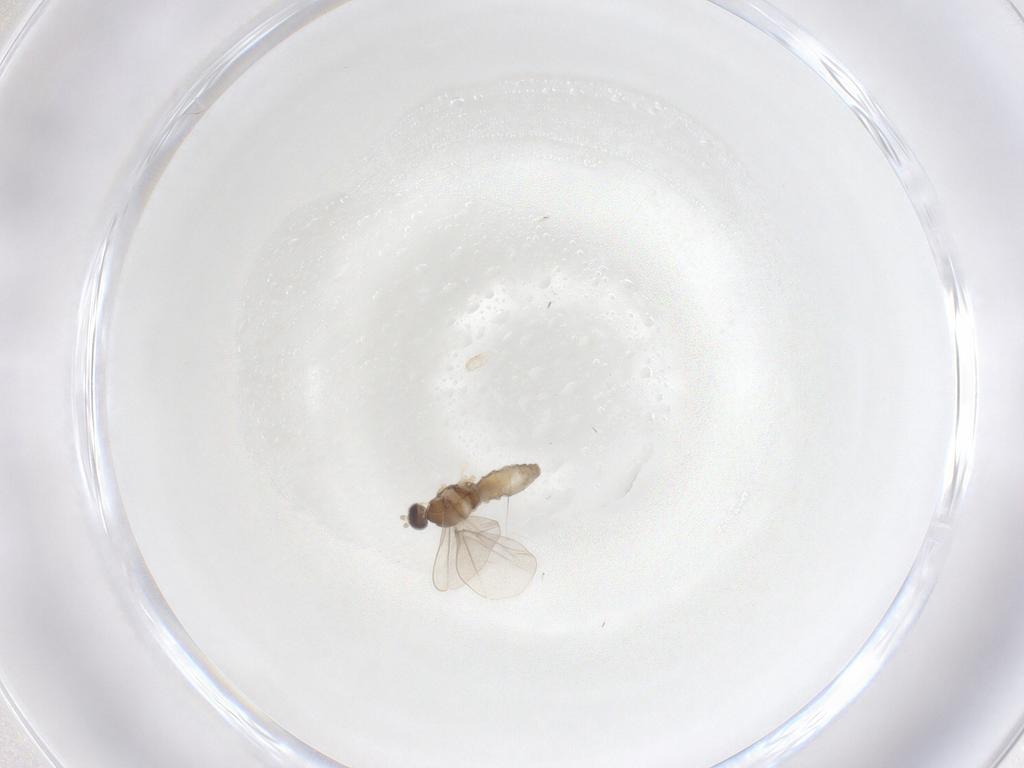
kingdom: Animalia
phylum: Arthropoda
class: Insecta
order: Diptera
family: Cecidomyiidae
